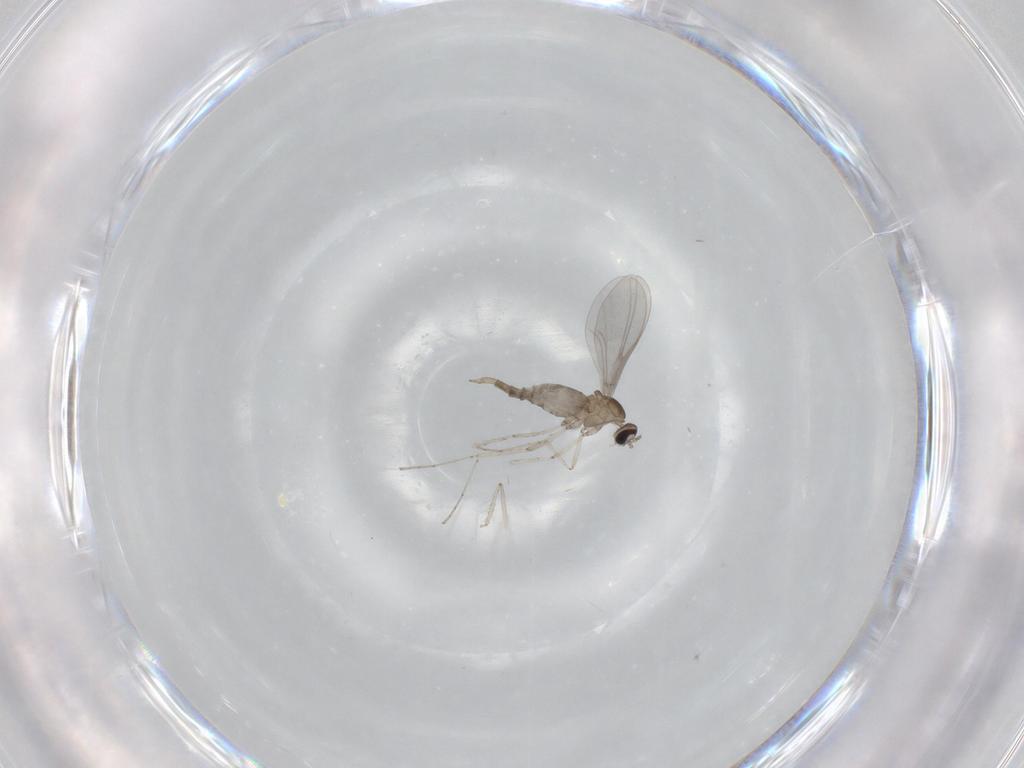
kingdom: Animalia
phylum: Arthropoda
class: Insecta
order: Diptera
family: Cecidomyiidae
